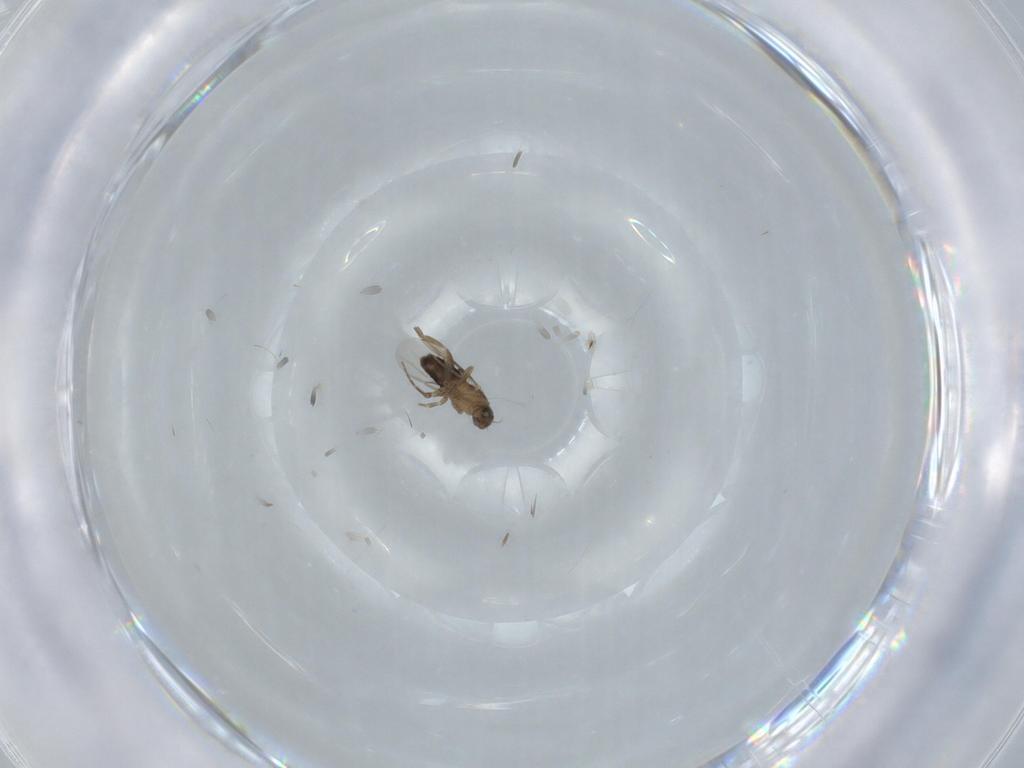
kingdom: Animalia
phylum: Arthropoda
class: Insecta
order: Diptera
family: Phoridae
